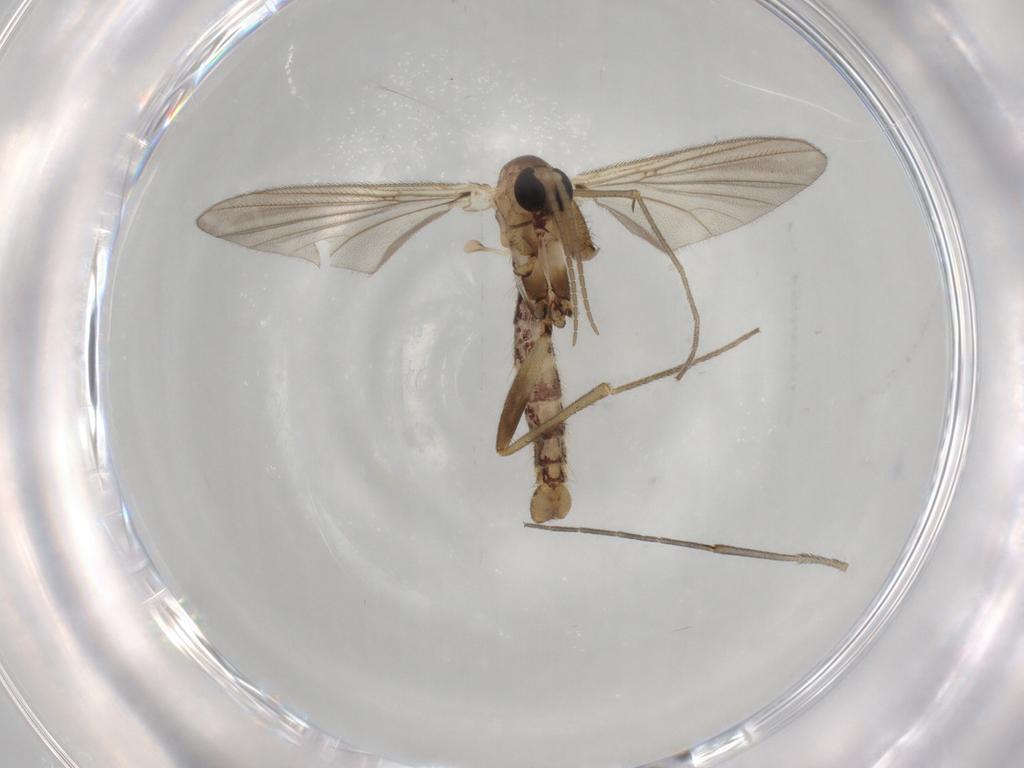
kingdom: Animalia
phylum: Arthropoda
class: Insecta
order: Diptera
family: Mycetophilidae
